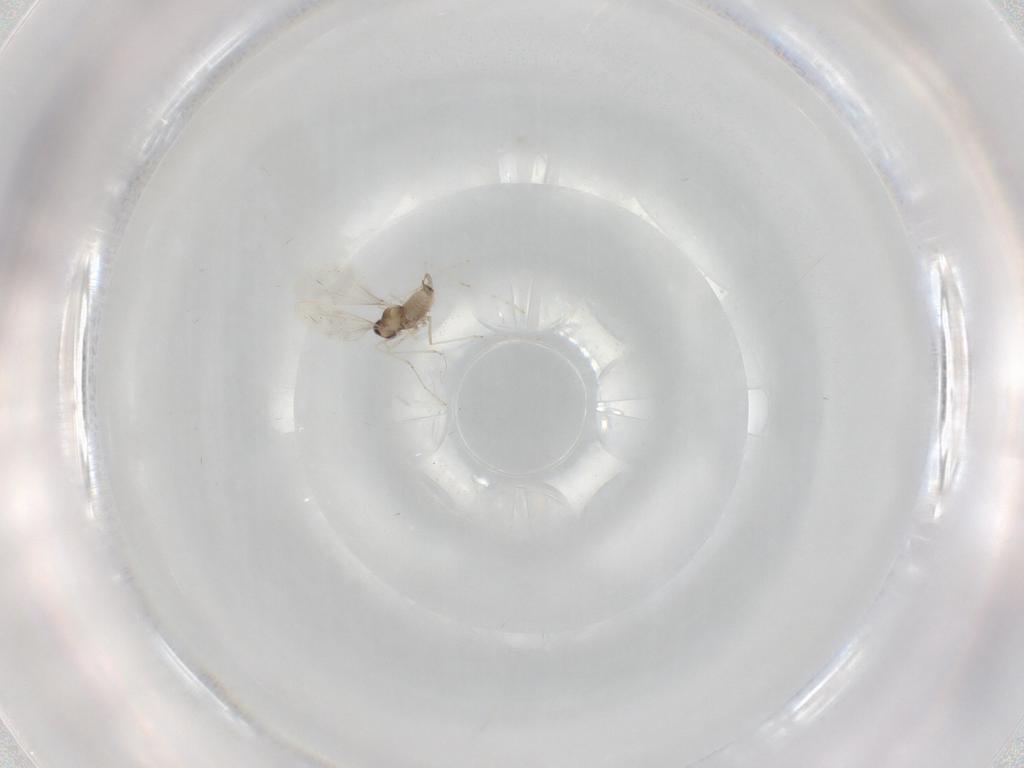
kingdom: Animalia
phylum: Arthropoda
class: Insecta
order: Diptera
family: Cecidomyiidae
